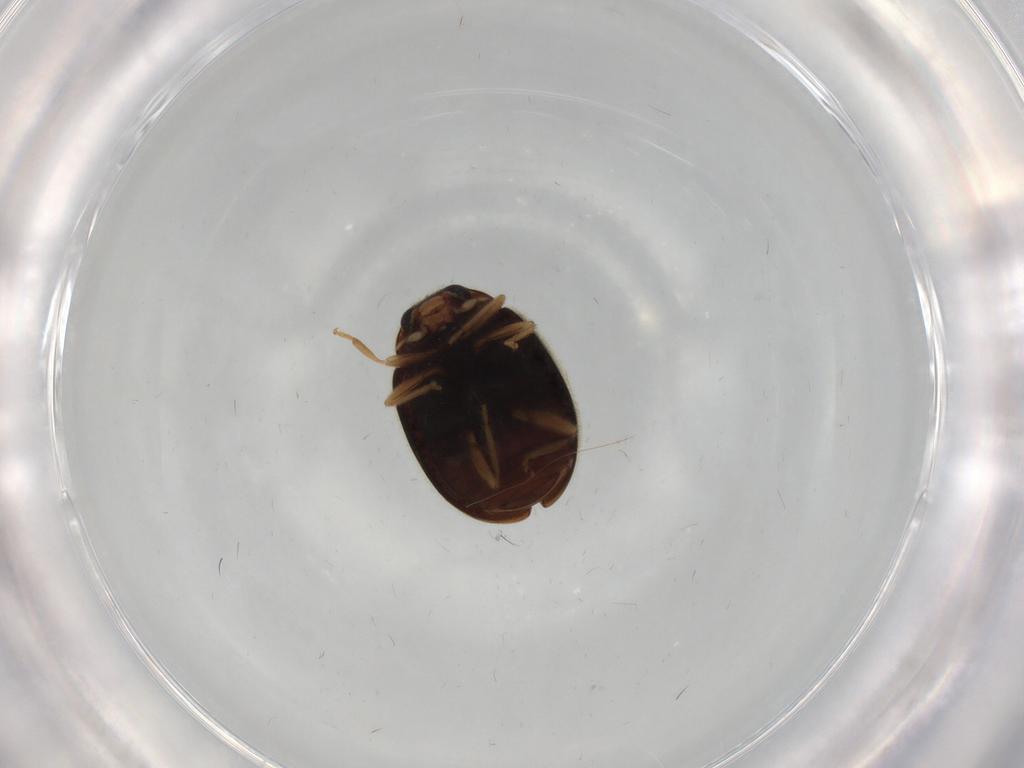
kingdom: Animalia
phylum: Arthropoda
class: Insecta
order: Coleoptera
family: Coccinellidae
